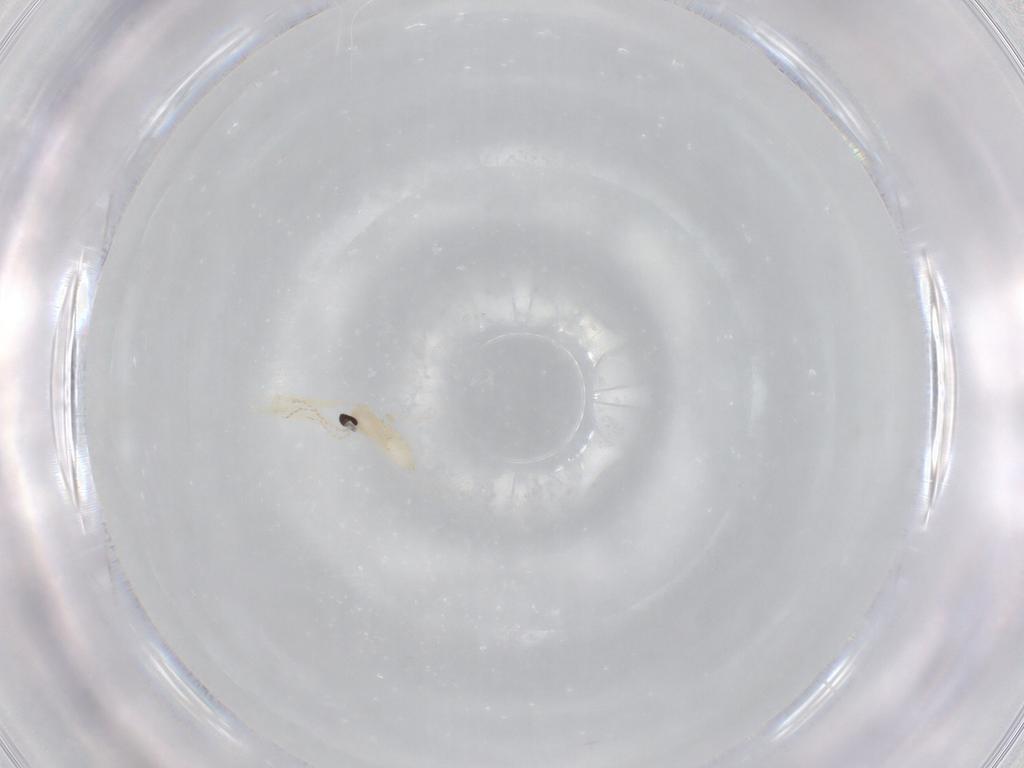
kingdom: Animalia
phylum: Arthropoda
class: Insecta
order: Diptera
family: Cecidomyiidae
